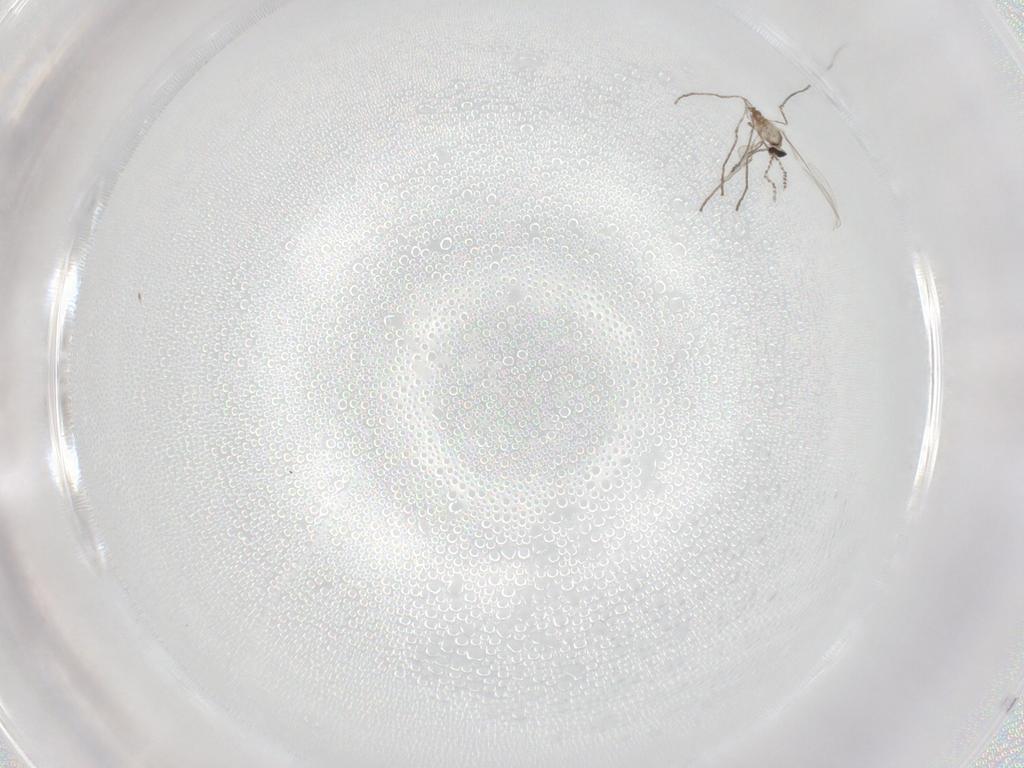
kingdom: Animalia
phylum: Arthropoda
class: Insecta
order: Diptera
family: Cecidomyiidae
